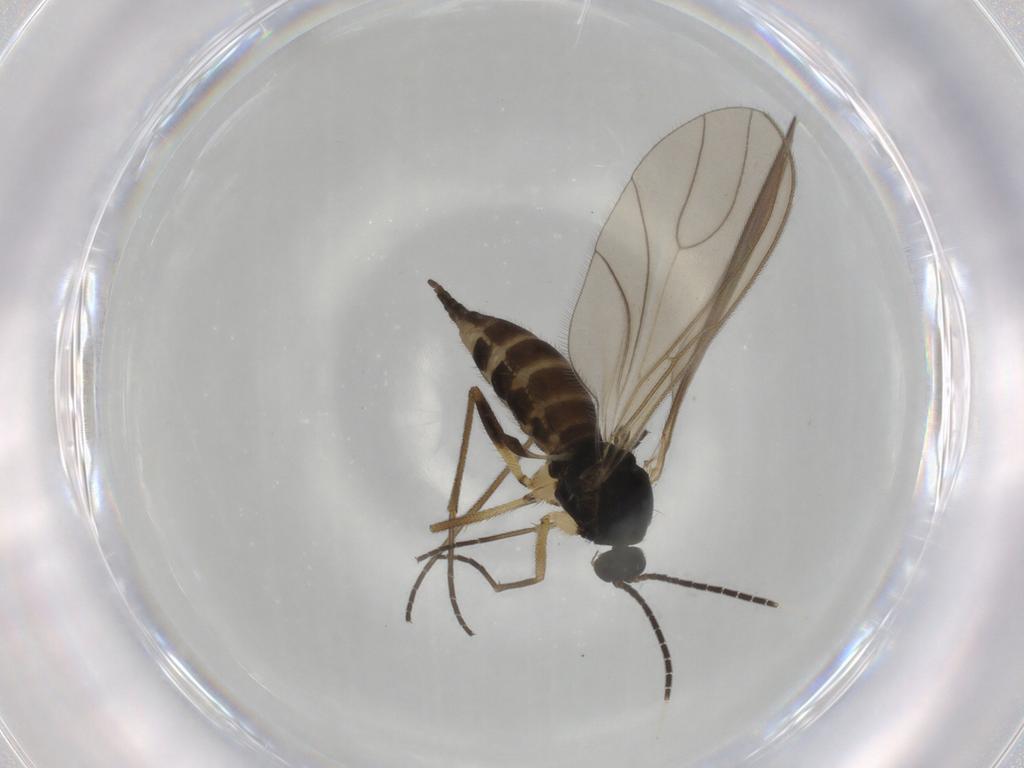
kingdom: Animalia
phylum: Arthropoda
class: Insecta
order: Diptera
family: Sciaridae
